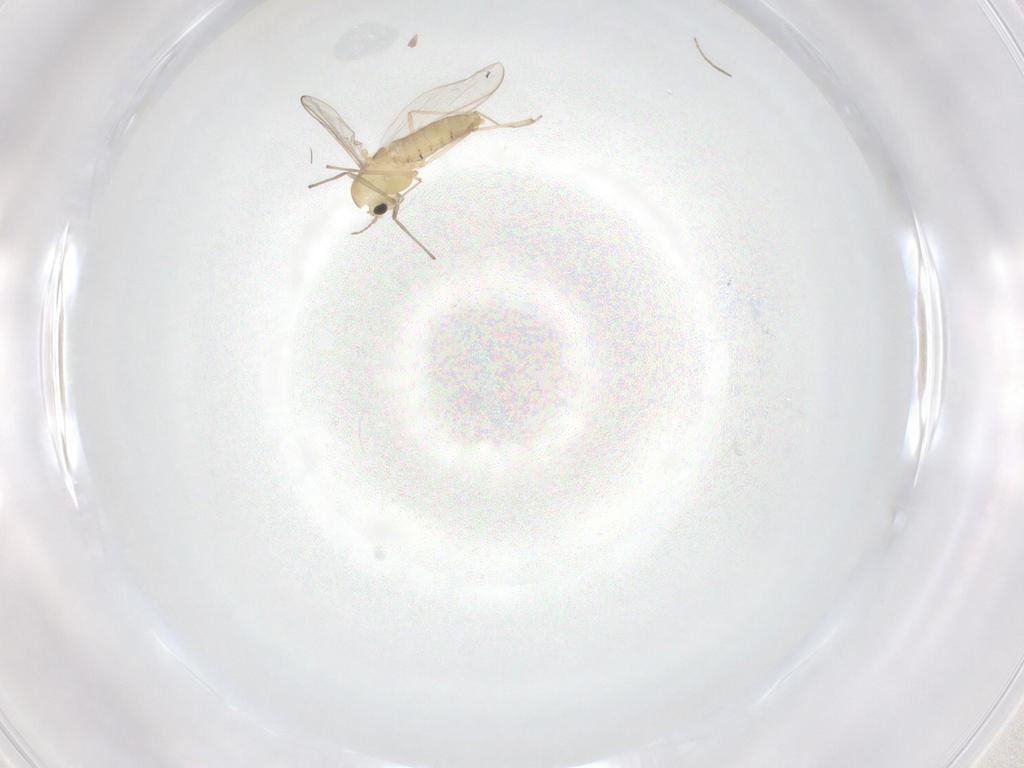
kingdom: Animalia
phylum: Arthropoda
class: Insecta
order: Diptera
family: Chironomidae
